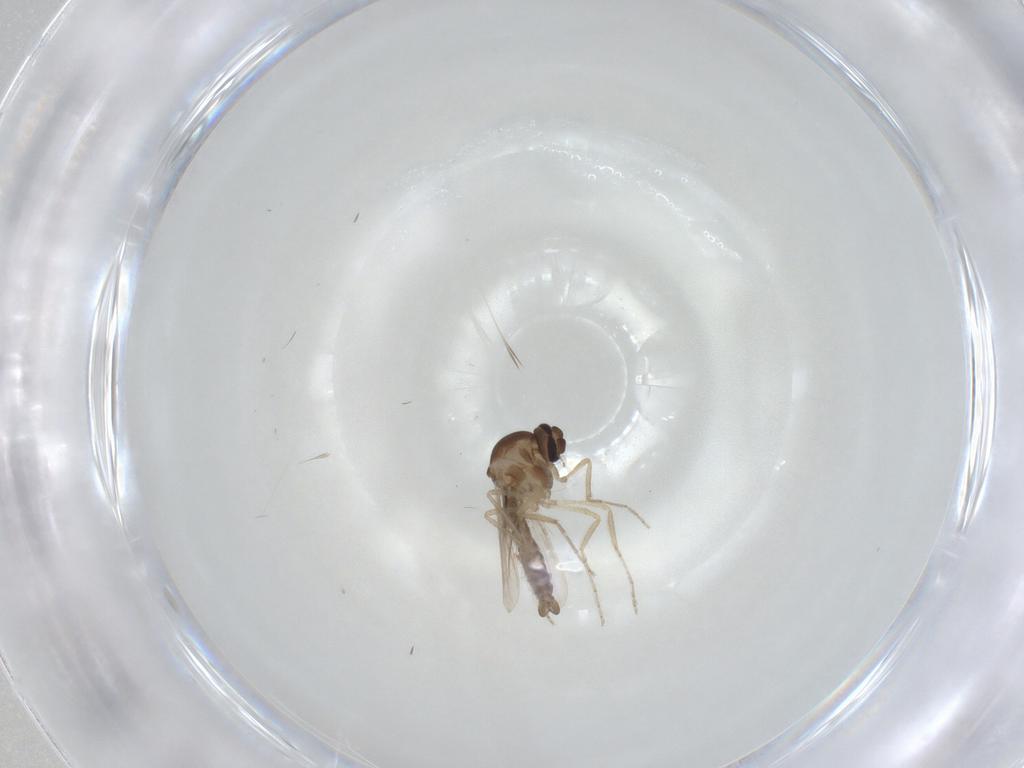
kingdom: Animalia
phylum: Arthropoda
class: Insecta
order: Diptera
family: Ceratopogonidae
